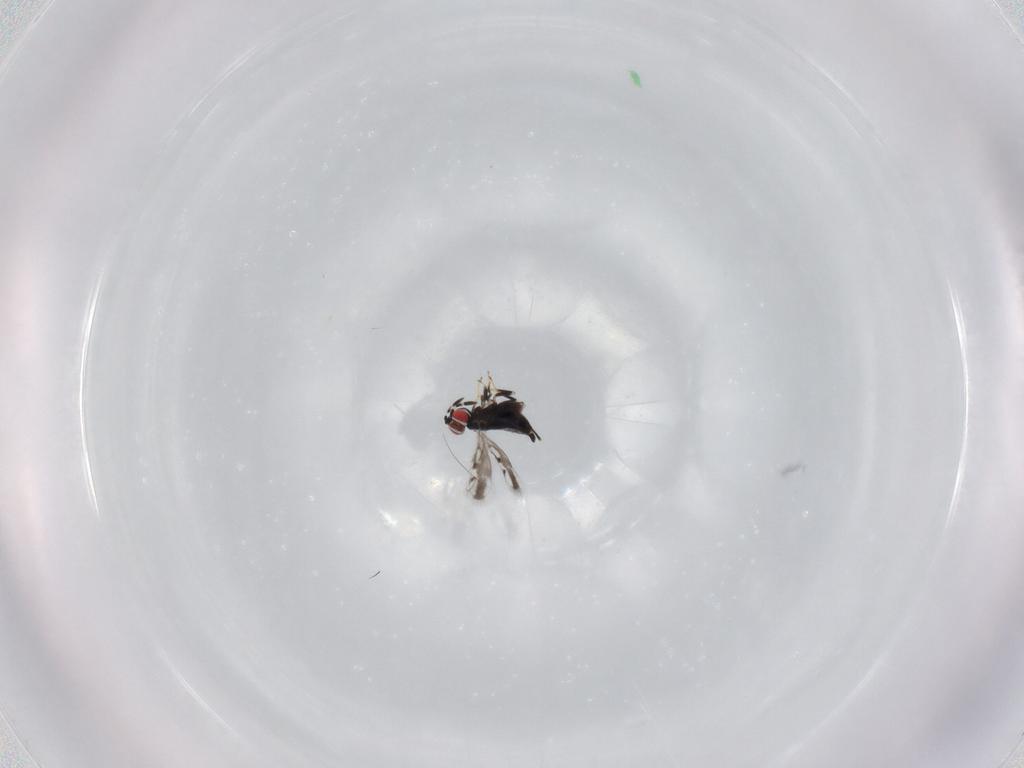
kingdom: Animalia
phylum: Arthropoda
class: Insecta
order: Hymenoptera
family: Azotidae
